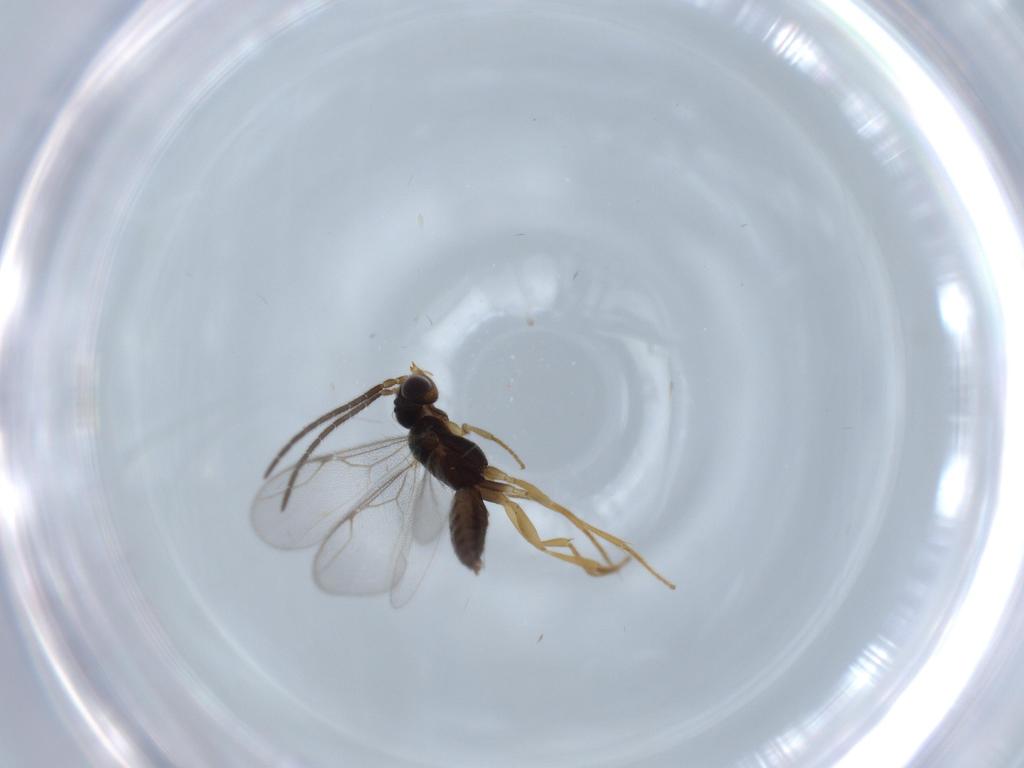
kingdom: Animalia
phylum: Arthropoda
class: Insecta
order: Hymenoptera
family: Dryinidae
